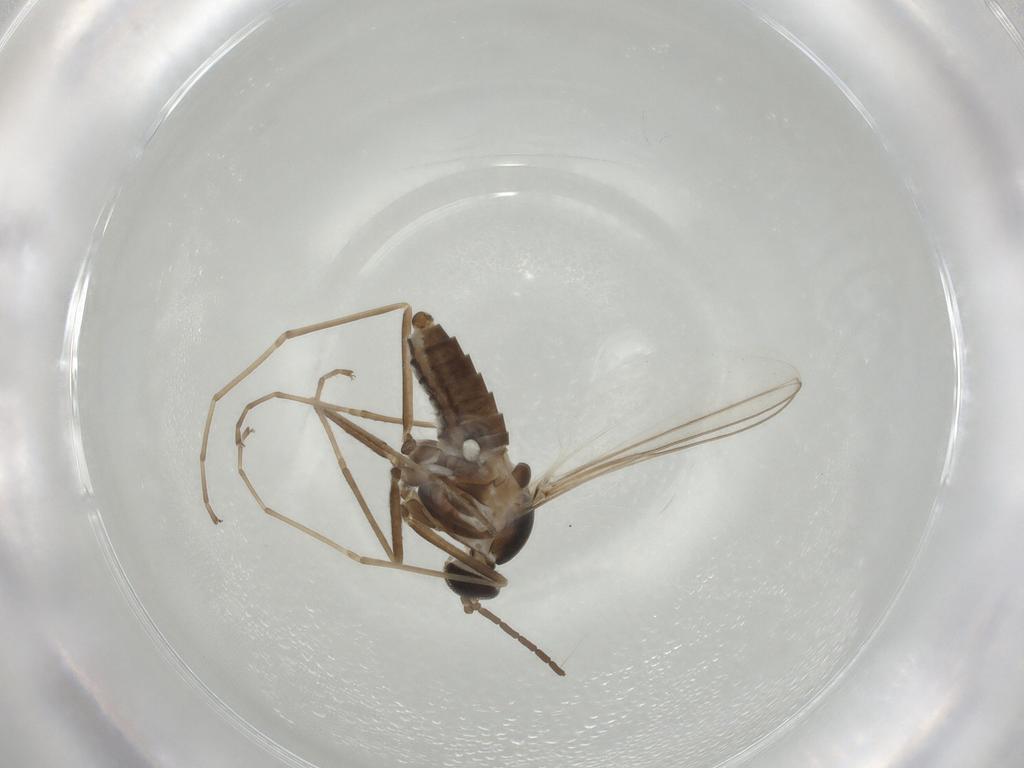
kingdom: Animalia
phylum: Arthropoda
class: Insecta
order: Diptera
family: Cecidomyiidae
